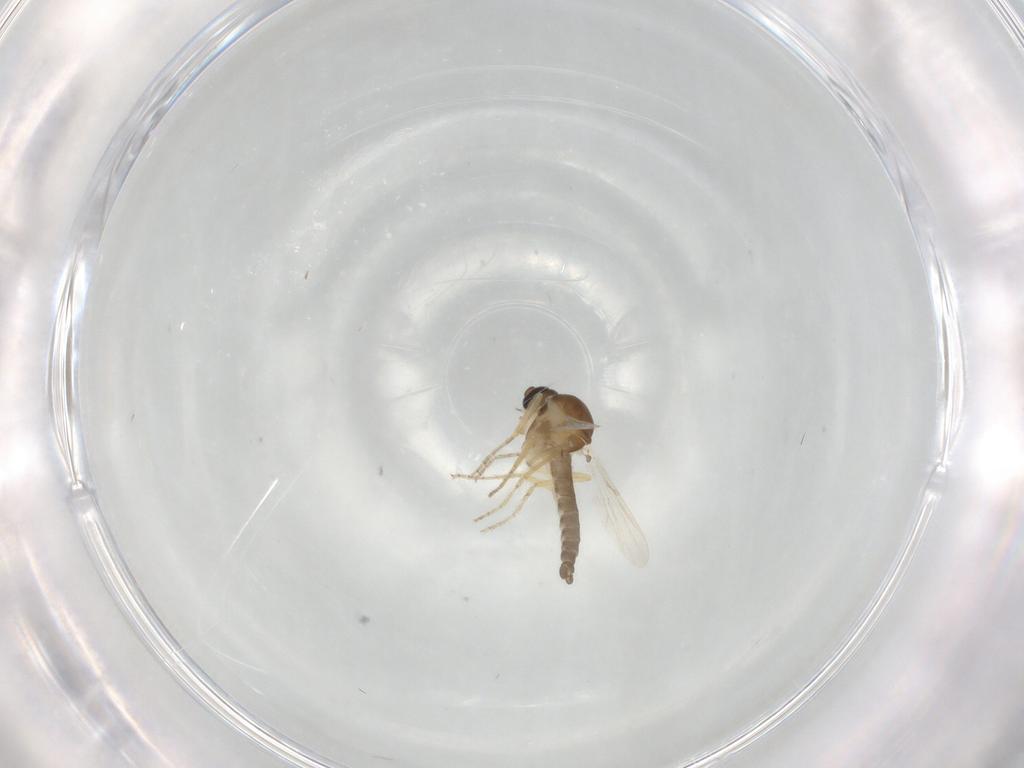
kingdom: Animalia
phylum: Arthropoda
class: Insecta
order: Diptera
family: Ceratopogonidae
